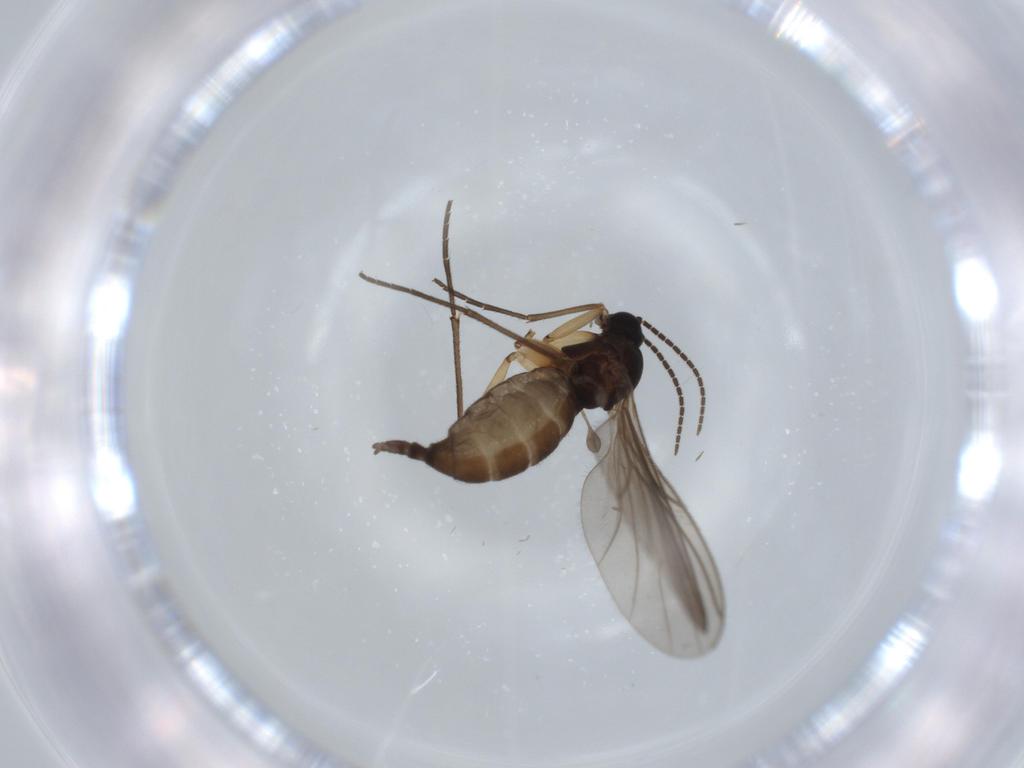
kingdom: Animalia
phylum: Arthropoda
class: Insecta
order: Diptera
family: Sciaridae
